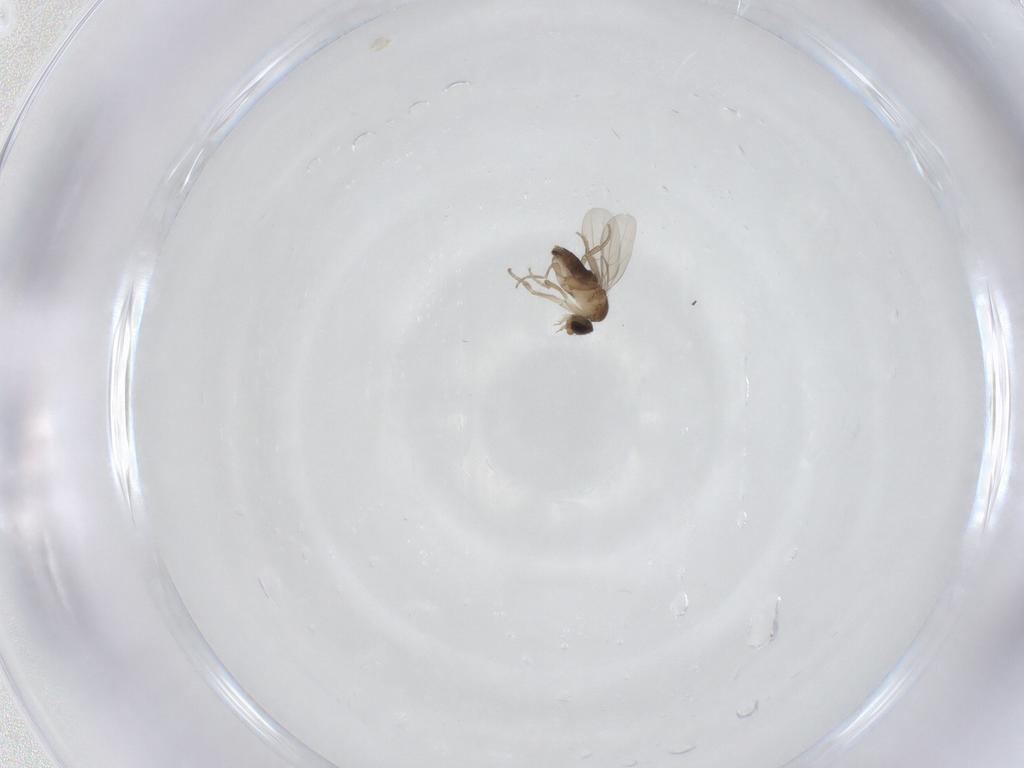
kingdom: Animalia
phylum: Arthropoda
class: Insecta
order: Diptera
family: Phoridae
